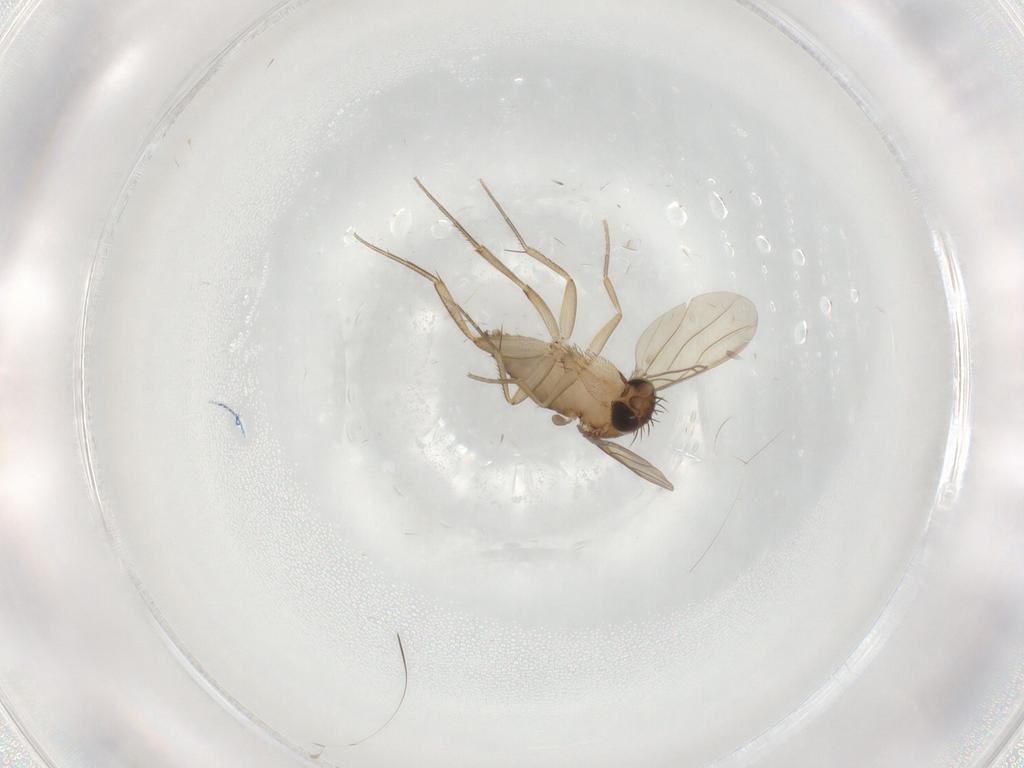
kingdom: Animalia
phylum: Arthropoda
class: Insecta
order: Diptera
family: Phoridae
